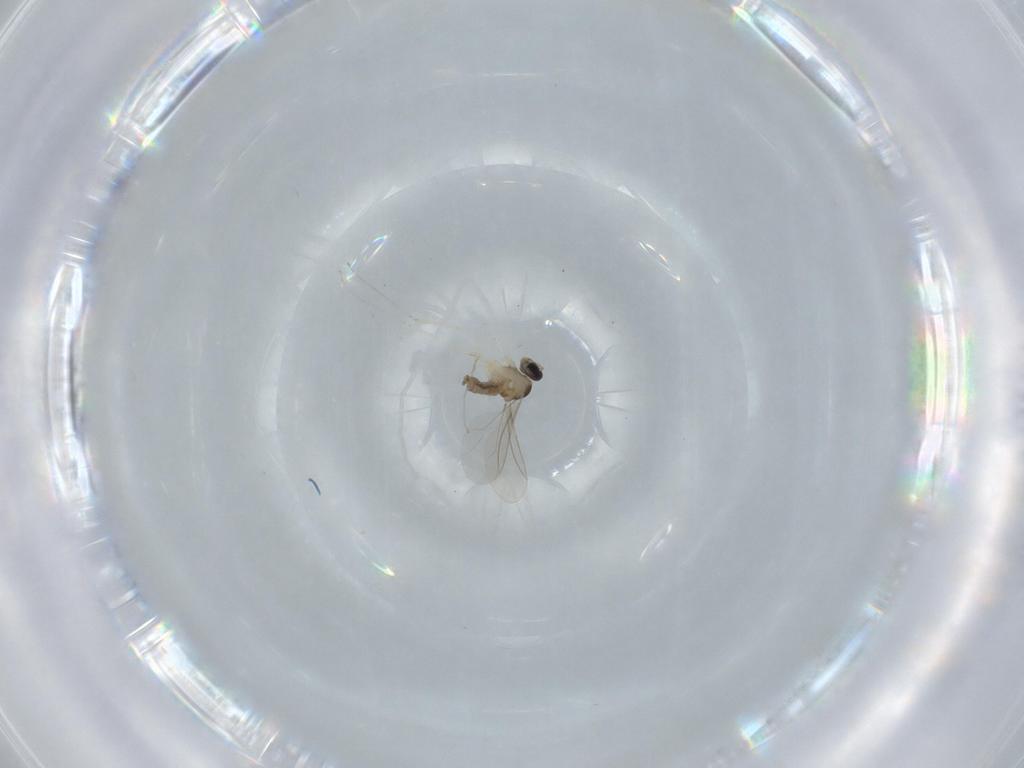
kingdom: Animalia
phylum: Arthropoda
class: Insecta
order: Diptera
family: Cecidomyiidae
